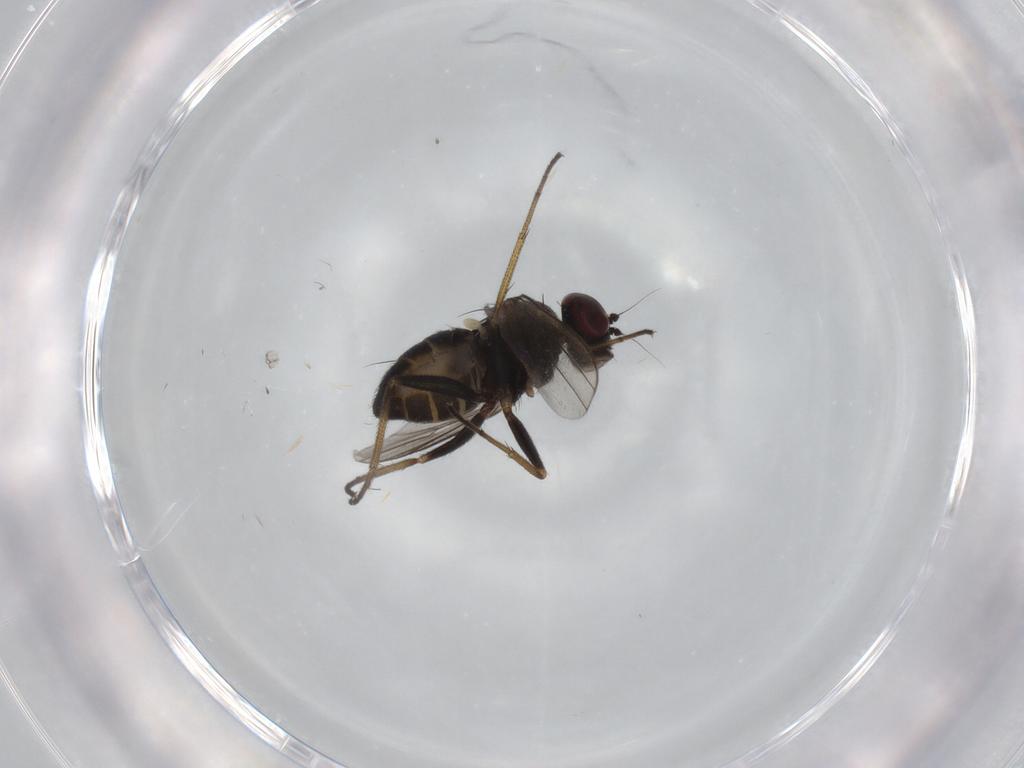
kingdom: Animalia
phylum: Arthropoda
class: Insecta
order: Diptera
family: Dolichopodidae
